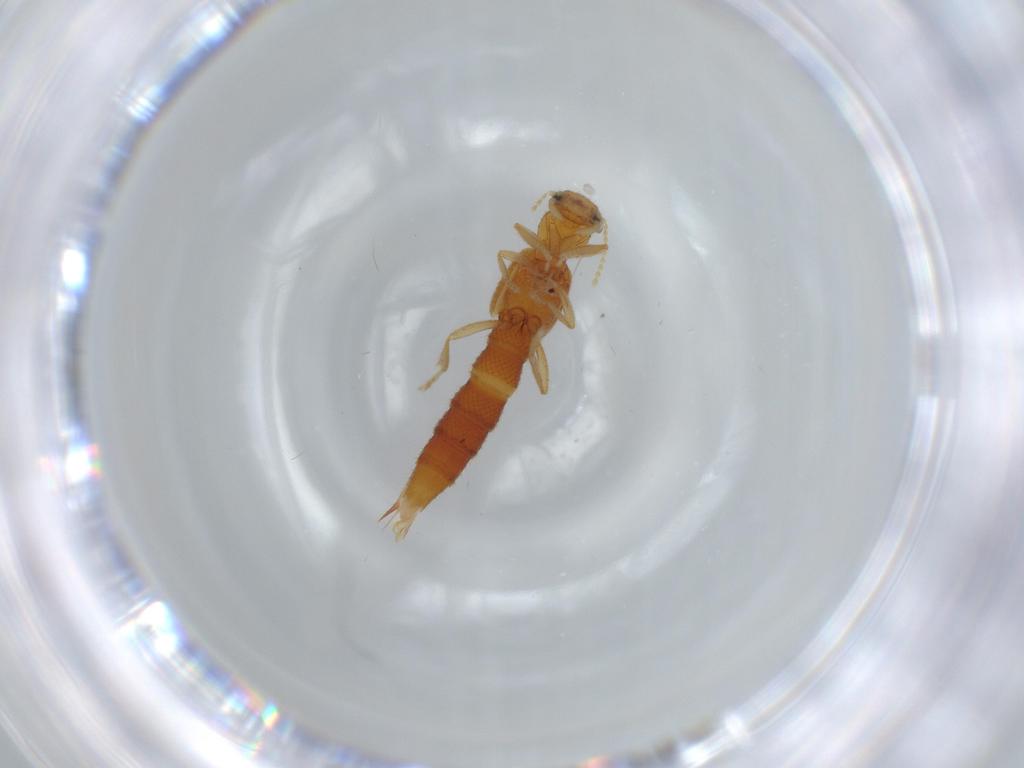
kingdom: Animalia
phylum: Arthropoda
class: Insecta
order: Coleoptera
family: Staphylinidae
